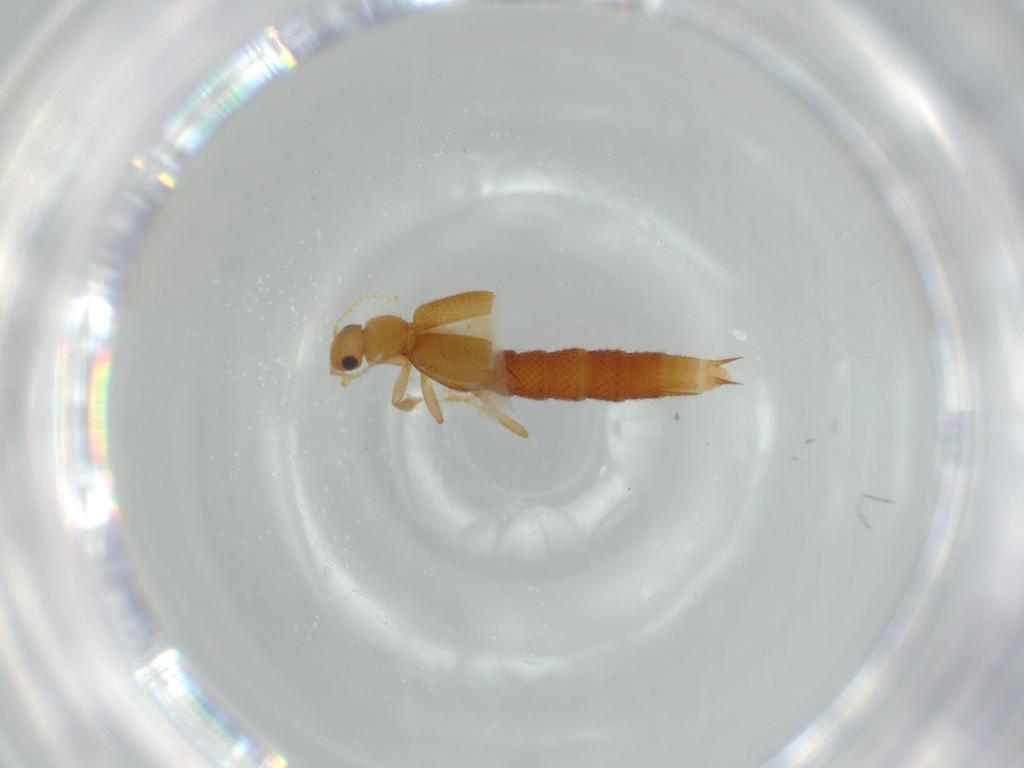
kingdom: Animalia
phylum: Arthropoda
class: Insecta
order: Coleoptera
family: Staphylinidae
